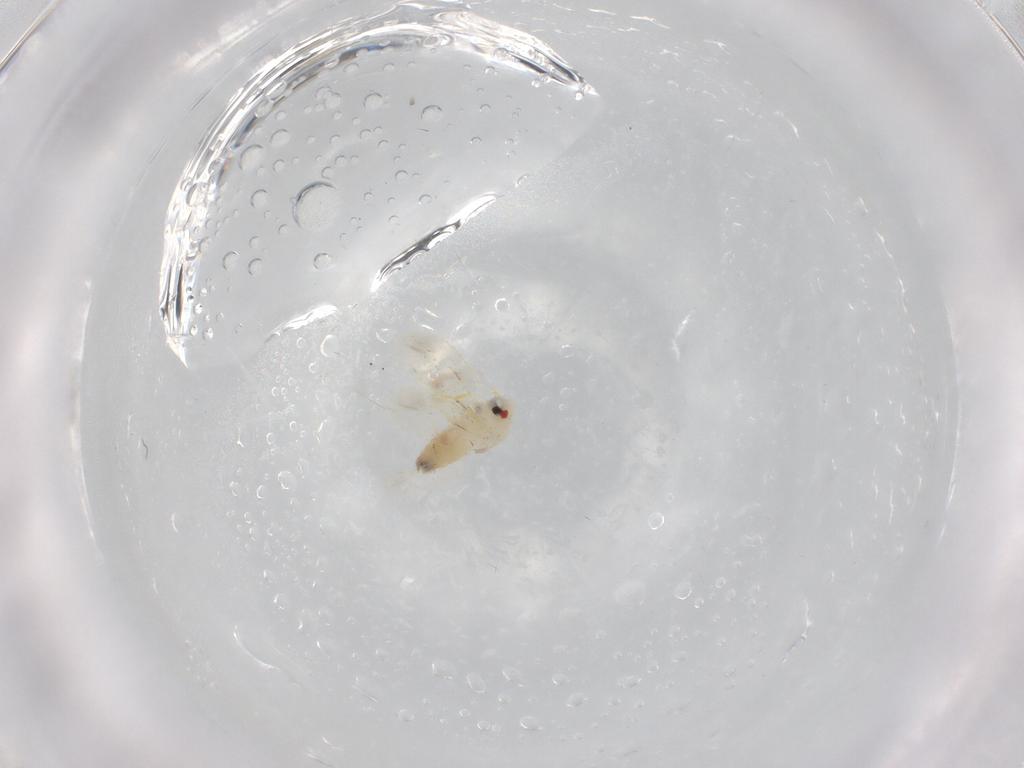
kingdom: Animalia
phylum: Arthropoda
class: Insecta
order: Hemiptera
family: Aleyrodidae
